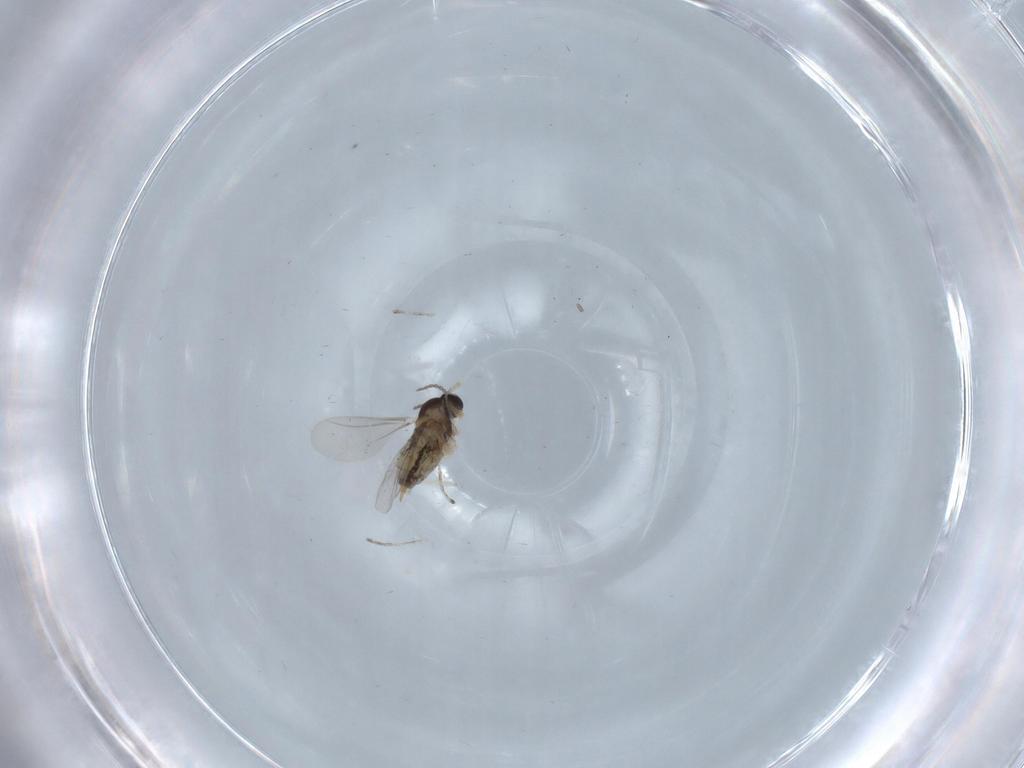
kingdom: Animalia
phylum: Arthropoda
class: Insecta
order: Diptera
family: Cecidomyiidae
